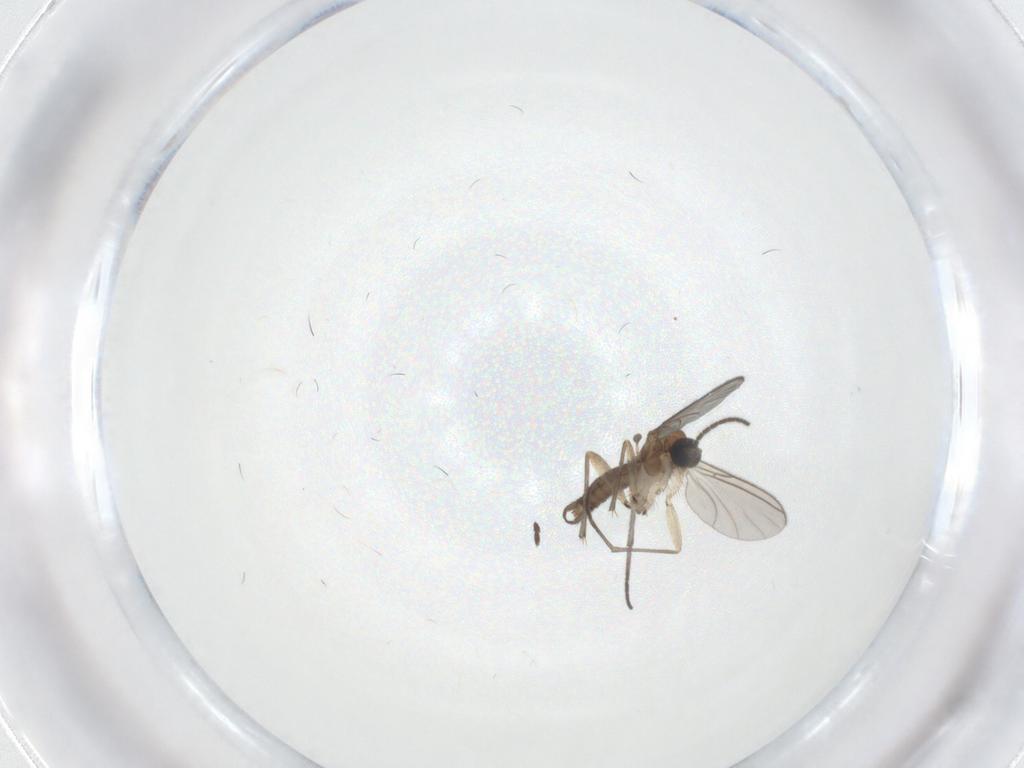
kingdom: Animalia
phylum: Arthropoda
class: Insecta
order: Diptera
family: Sciaridae
